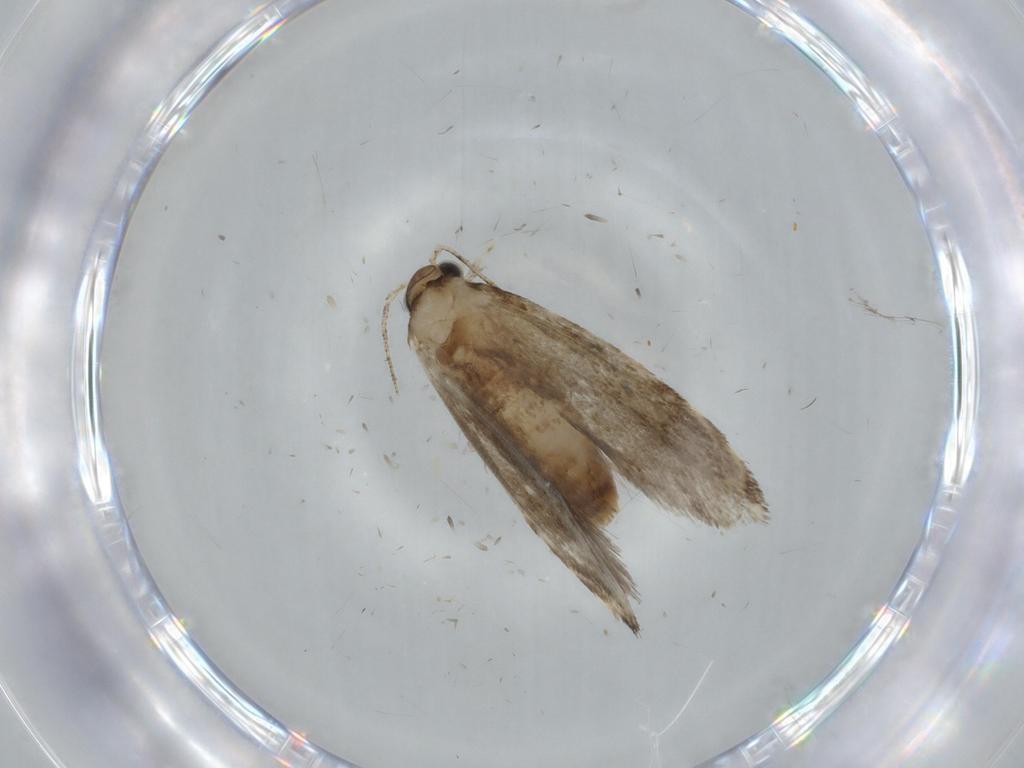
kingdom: Animalia
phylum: Arthropoda
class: Insecta
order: Lepidoptera
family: Tineidae
